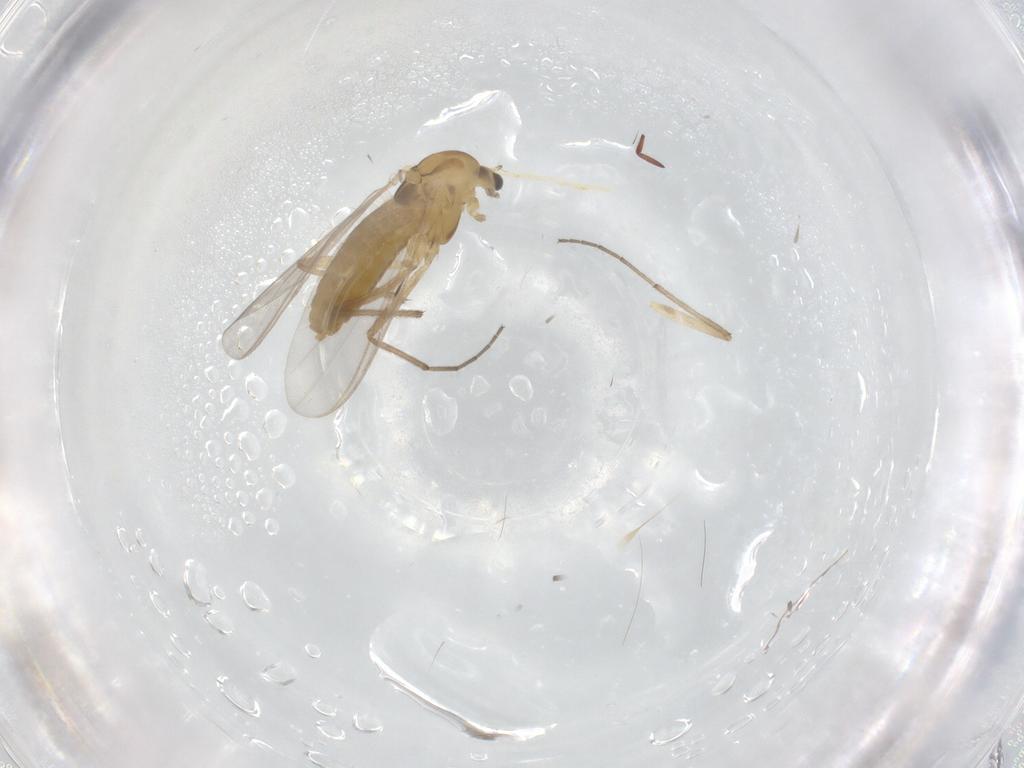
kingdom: Animalia
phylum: Arthropoda
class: Insecta
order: Diptera
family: Chironomidae
